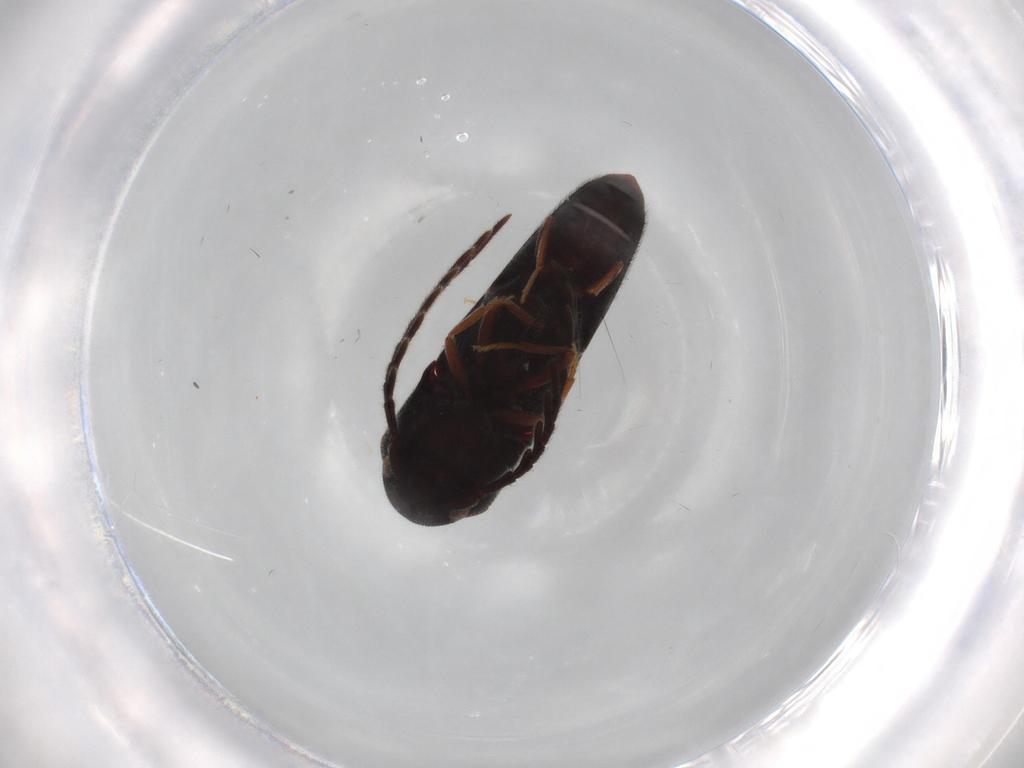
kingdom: Animalia
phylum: Arthropoda
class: Insecta
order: Coleoptera
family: Eucnemidae
